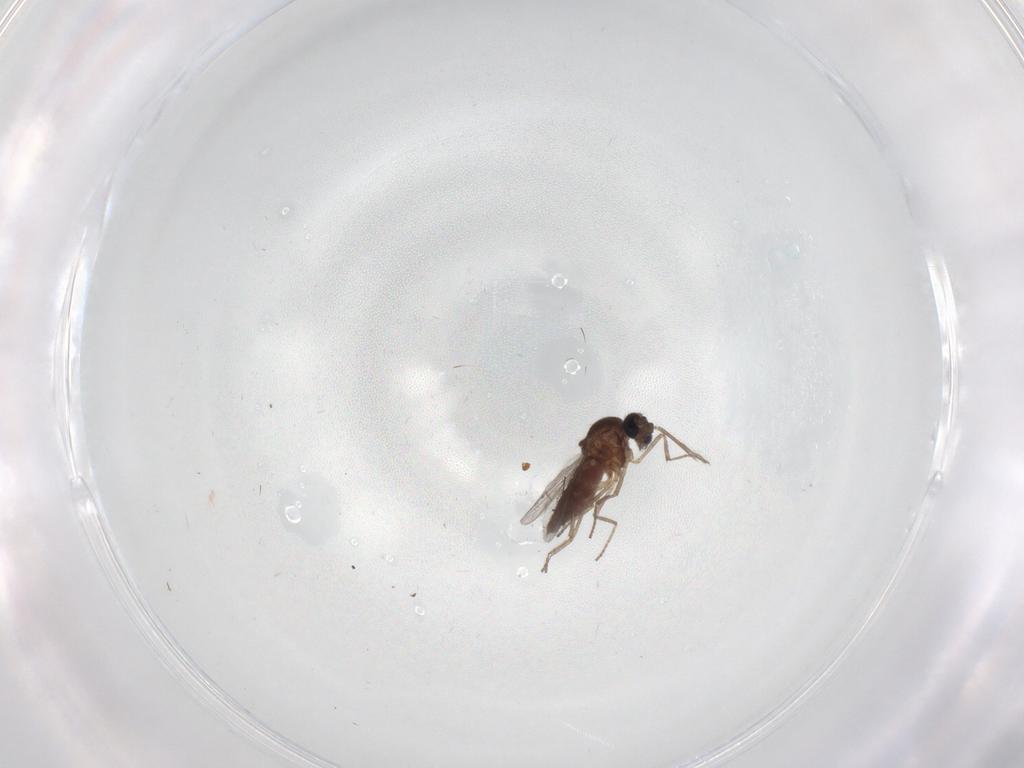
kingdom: Animalia
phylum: Arthropoda
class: Insecta
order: Diptera
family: Ceratopogonidae
